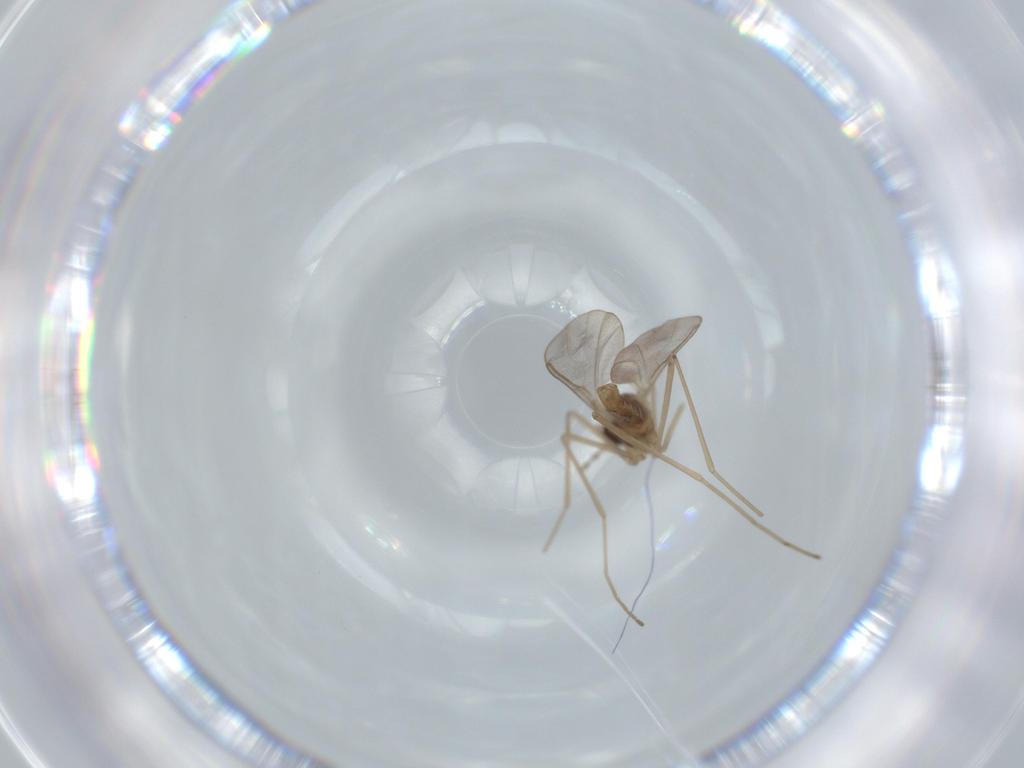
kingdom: Animalia
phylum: Arthropoda
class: Insecta
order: Diptera
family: Cecidomyiidae
